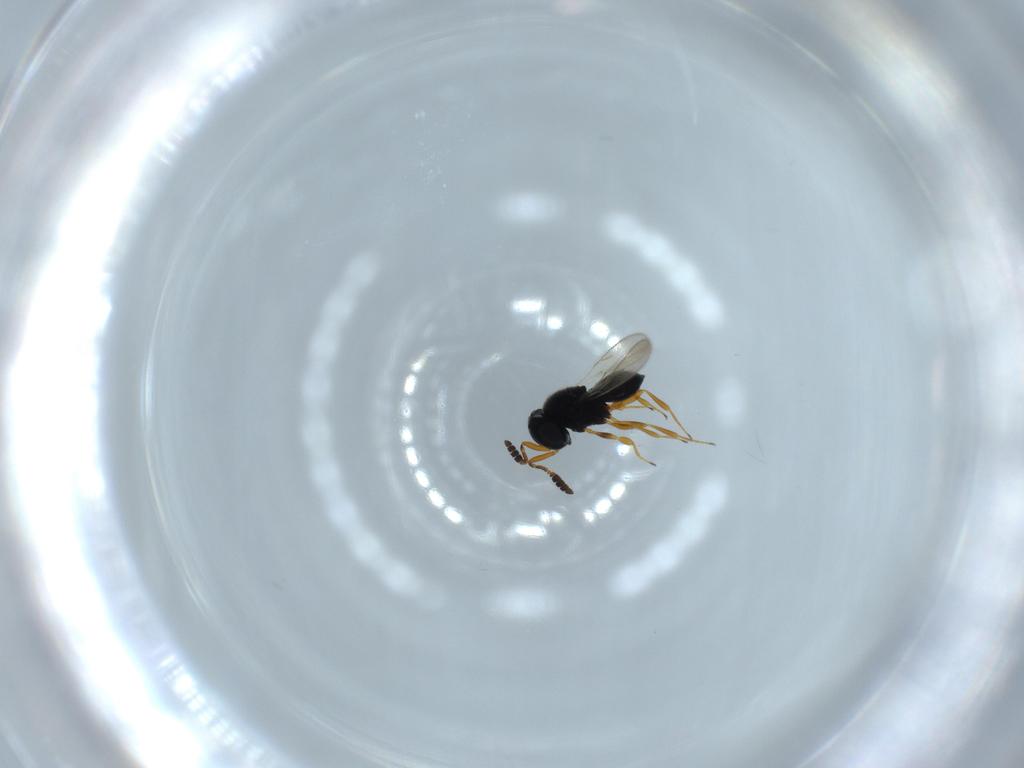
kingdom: Animalia
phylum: Arthropoda
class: Insecta
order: Hymenoptera
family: Scelionidae
